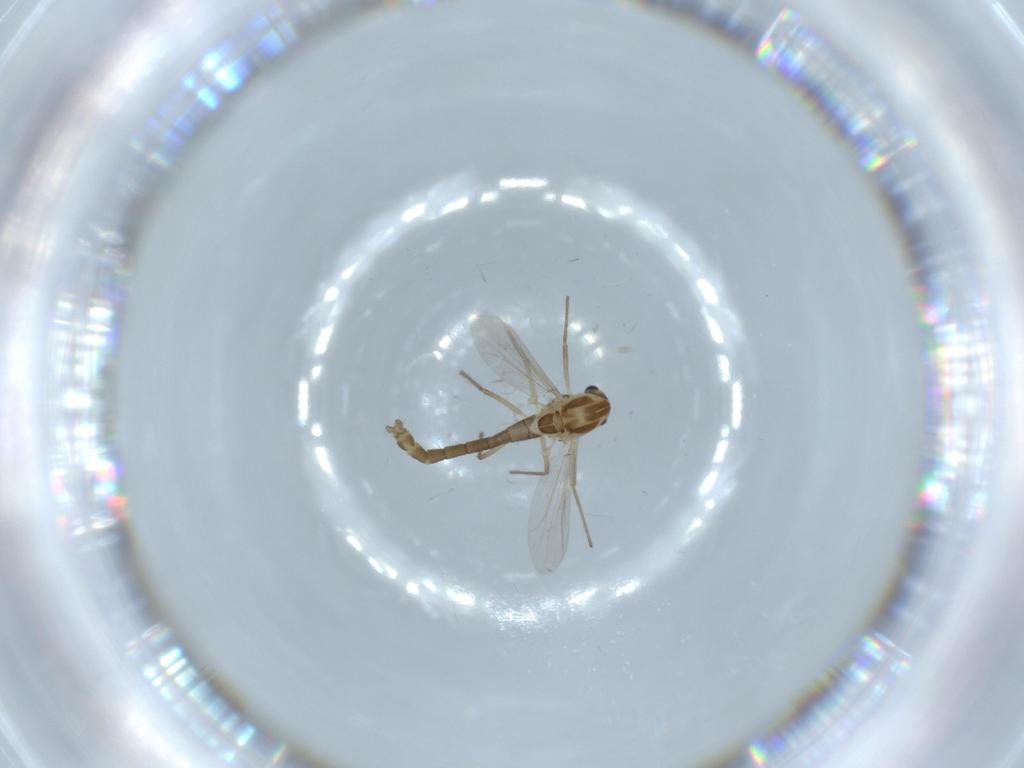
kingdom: Animalia
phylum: Arthropoda
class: Insecta
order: Diptera
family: Chironomidae
